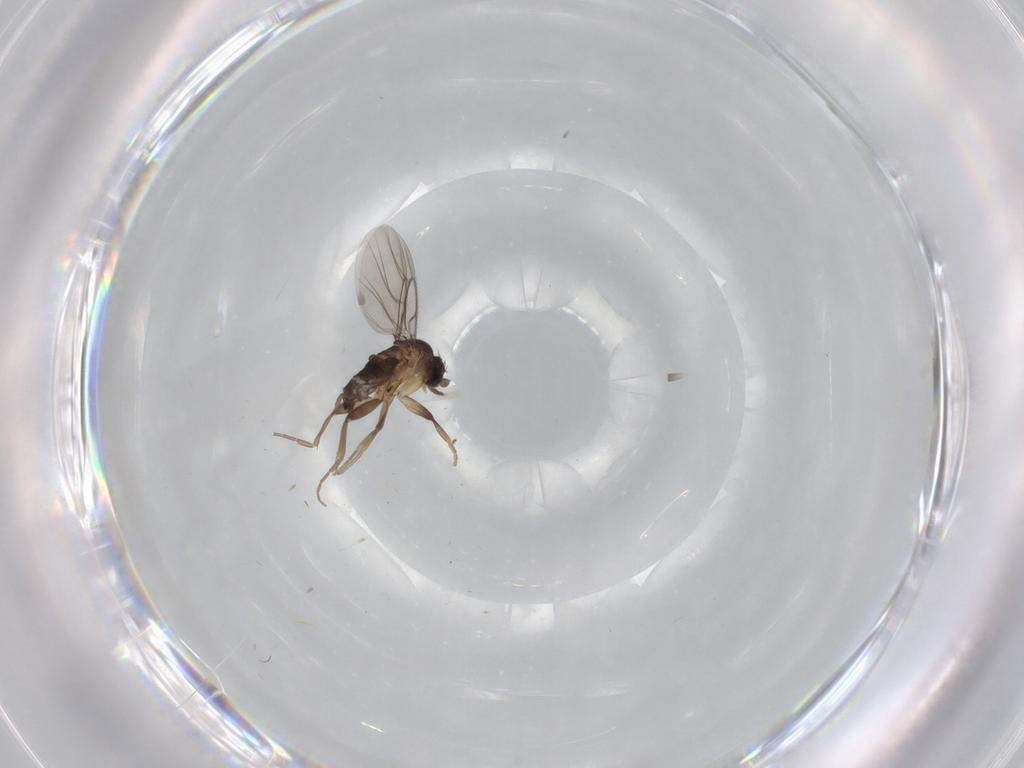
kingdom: Animalia
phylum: Arthropoda
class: Insecta
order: Diptera
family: Phoridae
